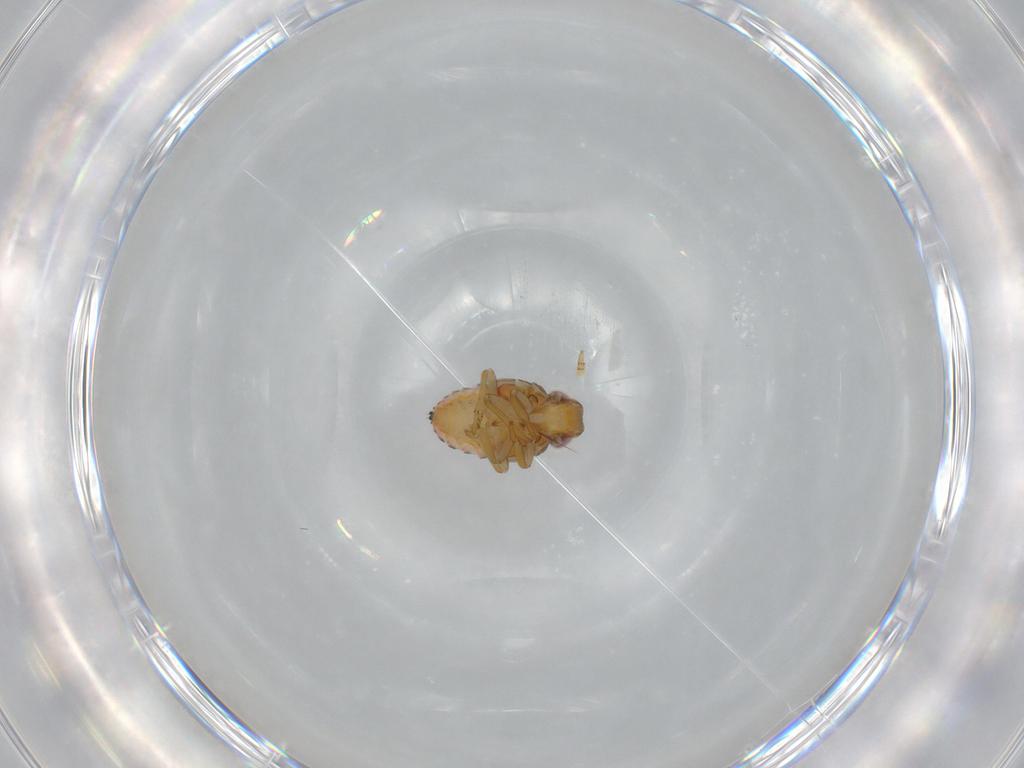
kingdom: Animalia
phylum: Arthropoda
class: Insecta
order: Hemiptera
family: Issidae
